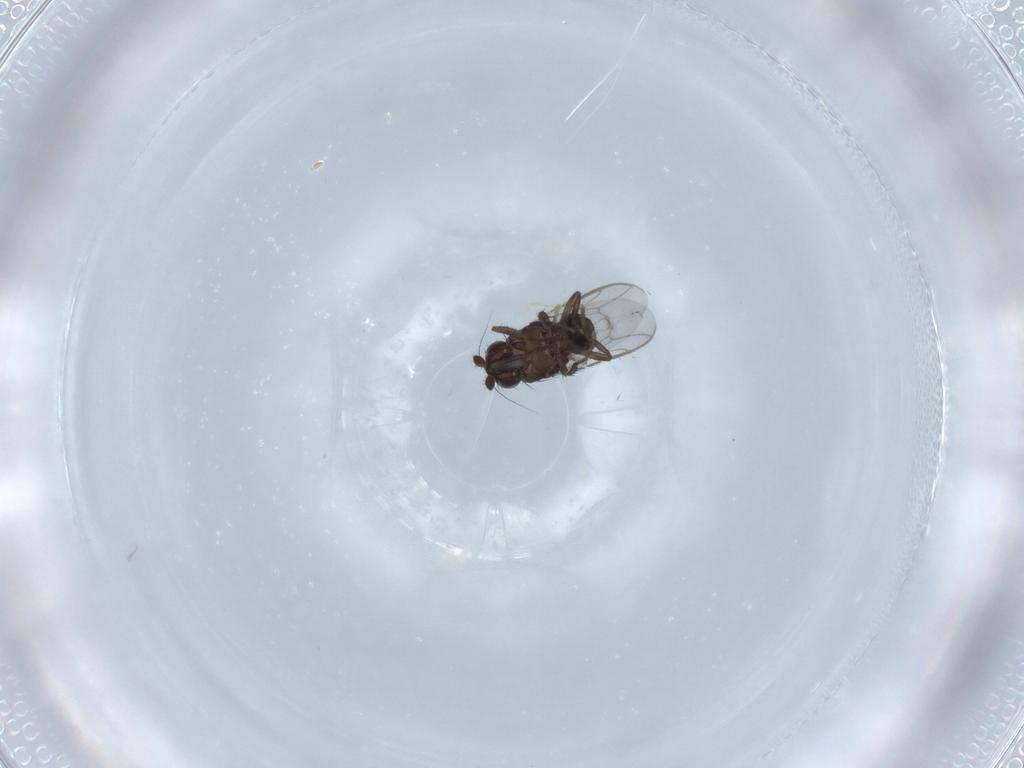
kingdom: Animalia
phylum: Arthropoda
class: Insecta
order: Diptera
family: Sphaeroceridae
